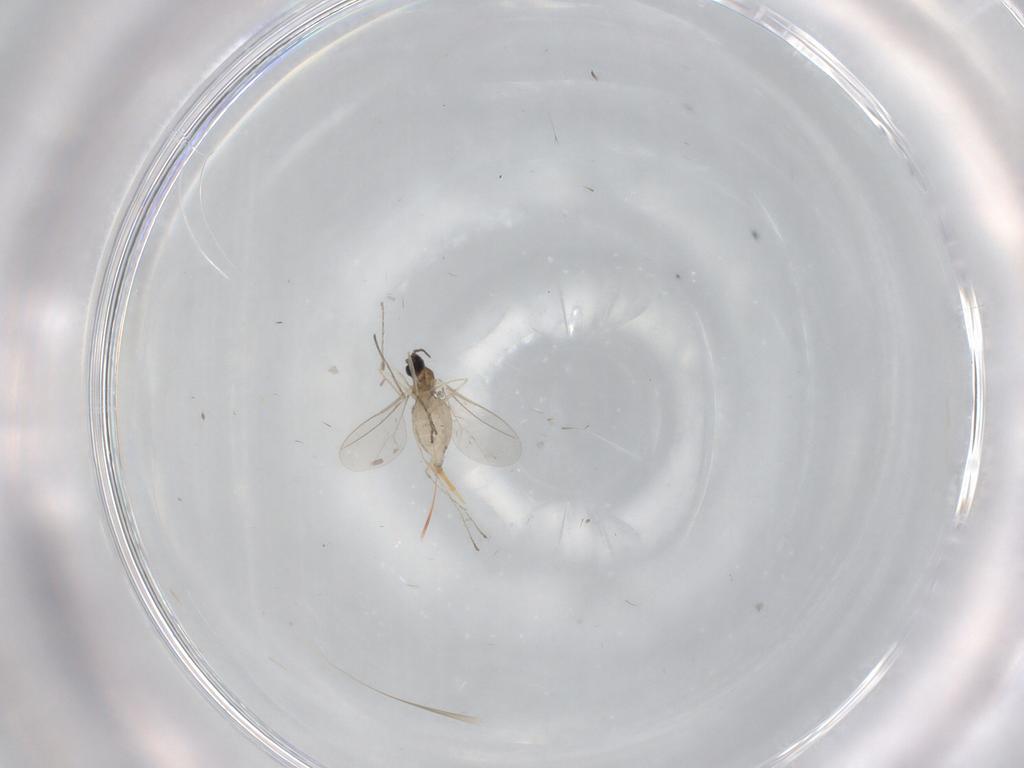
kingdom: Animalia
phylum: Arthropoda
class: Insecta
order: Diptera
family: Cecidomyiidae
